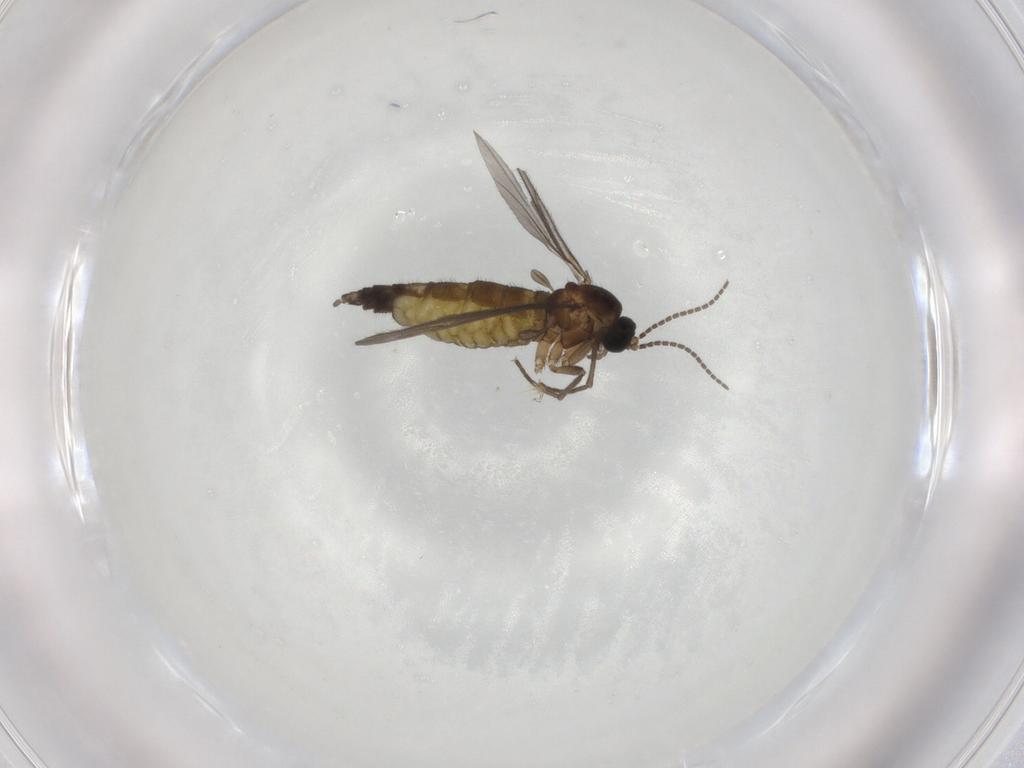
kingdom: Animalia
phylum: Arthropoda
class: Insecta
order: Diptera
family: Sciaridae
